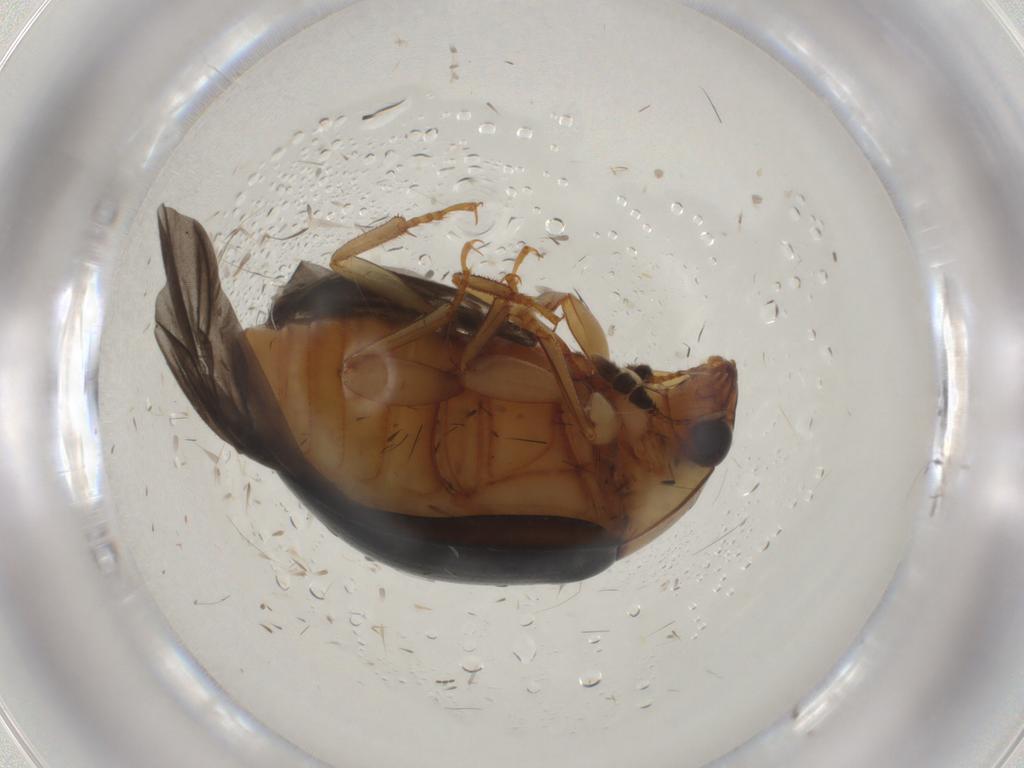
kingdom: Animalia
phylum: Arthropoda
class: Insecta
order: Coleoptera
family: Nitidulidae
